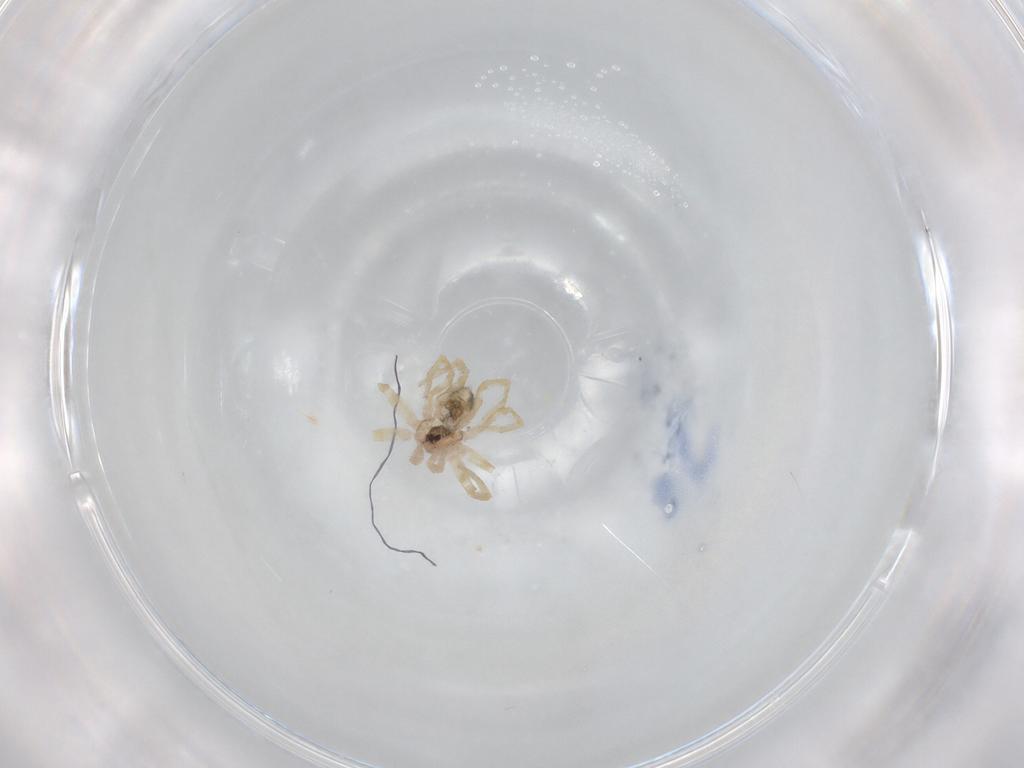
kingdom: Animalia
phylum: Arthropoda
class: Arachnida
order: Araneae
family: Oecobiidae
